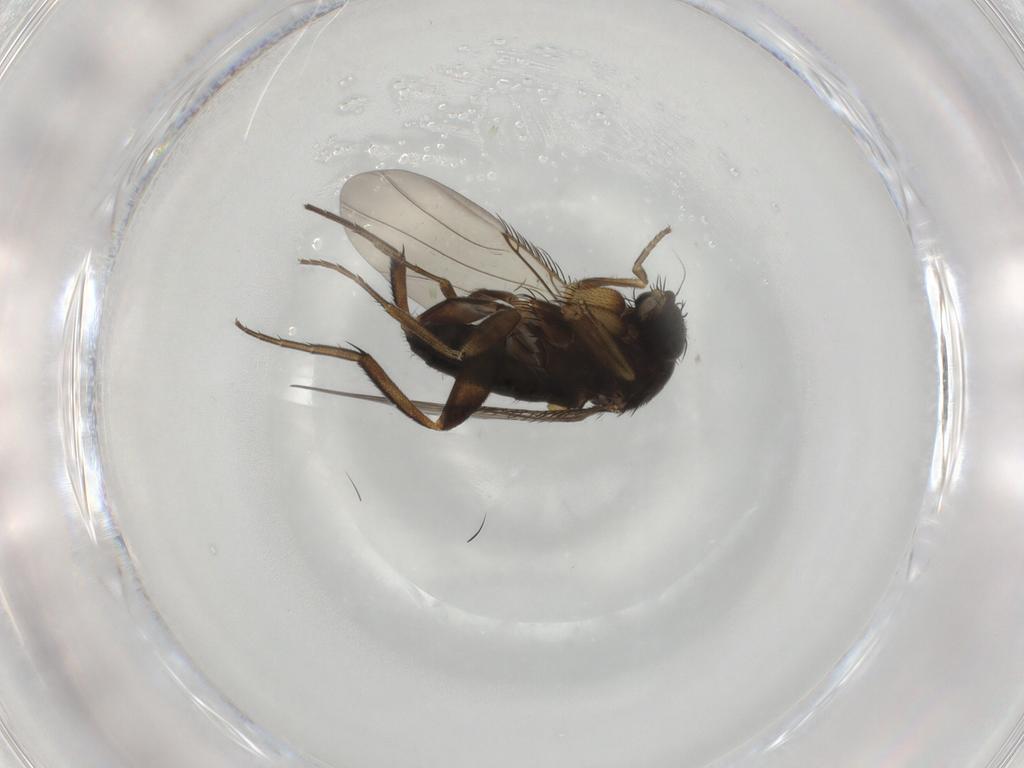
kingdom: Animalia
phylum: Arthropoda
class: Insecta
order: Diptera
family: Phoridae
